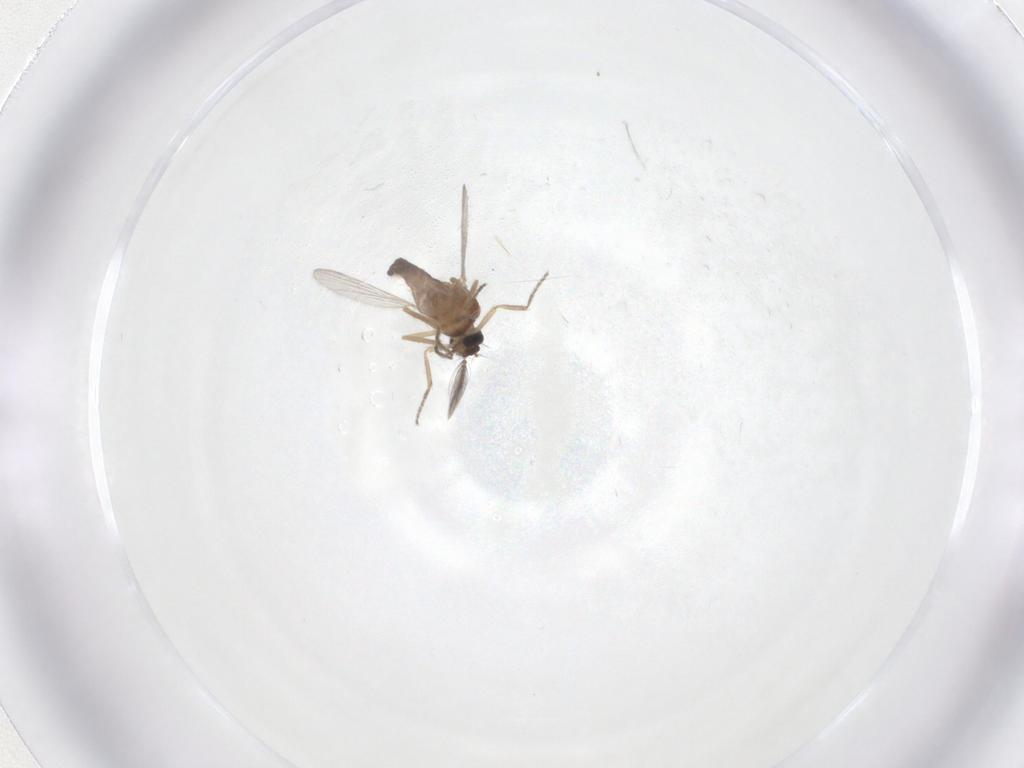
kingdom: Animalia
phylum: Arthropoda
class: Insecta
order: Diptera
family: Ceratopogonidae
